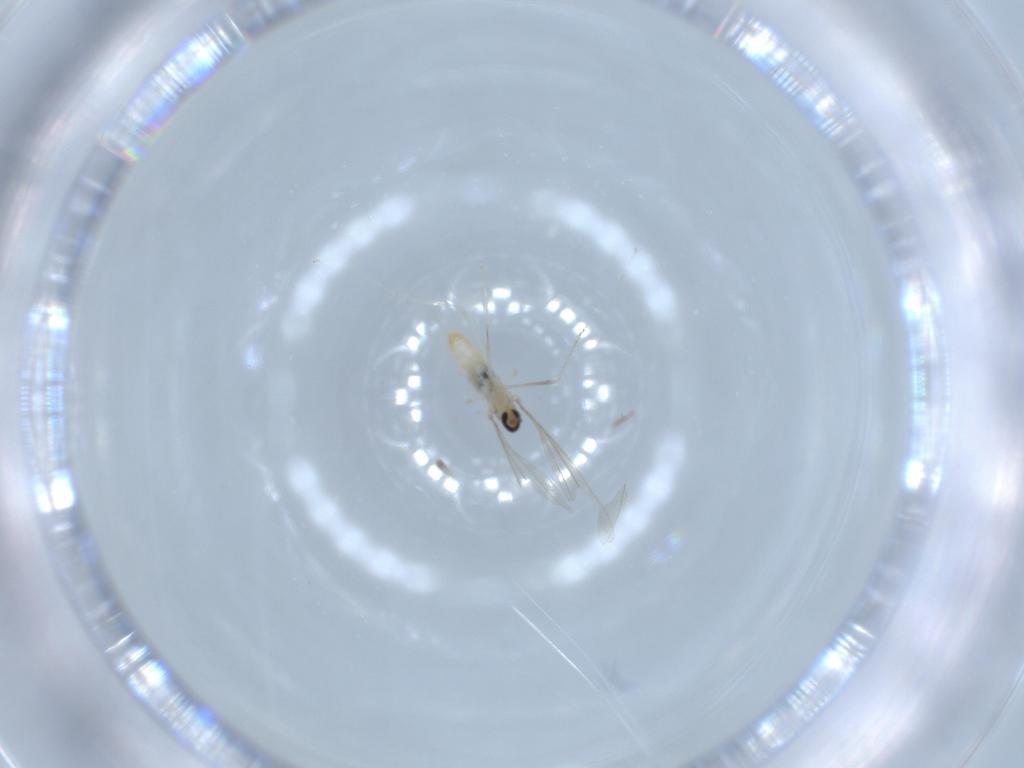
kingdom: Animalia
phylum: Arthropoda
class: Insecta
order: Diptera
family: Cecidomyiidae
